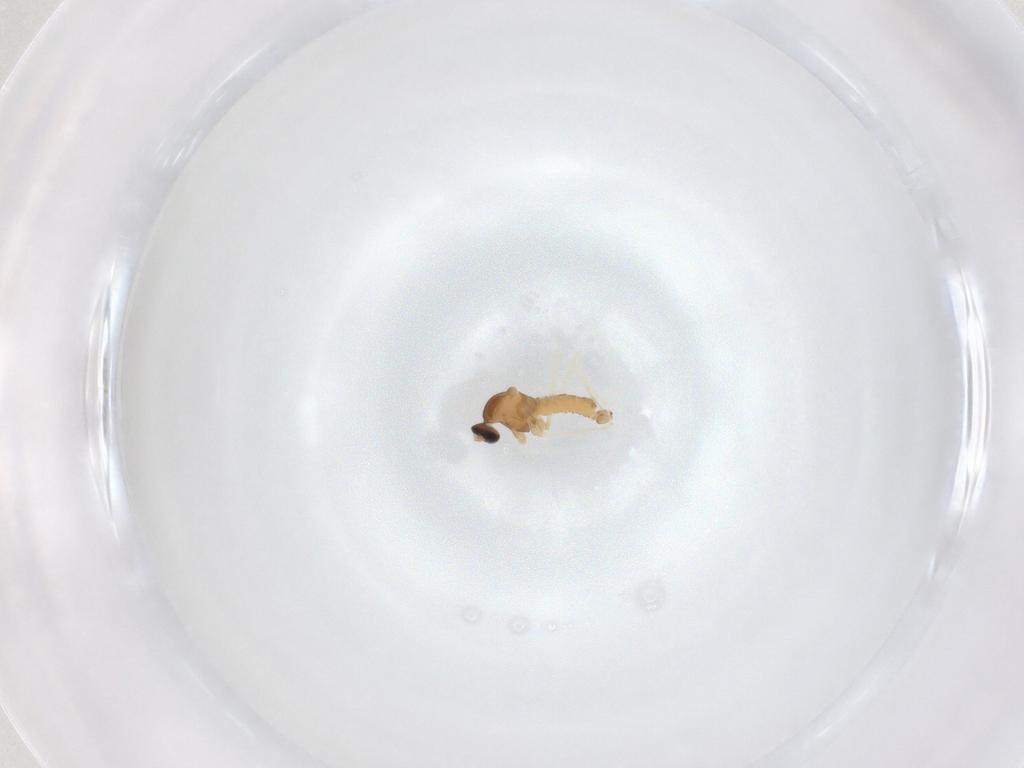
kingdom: Animalia
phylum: Arthropoda
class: Insecta
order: Diptera
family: Cecidomyiidae
